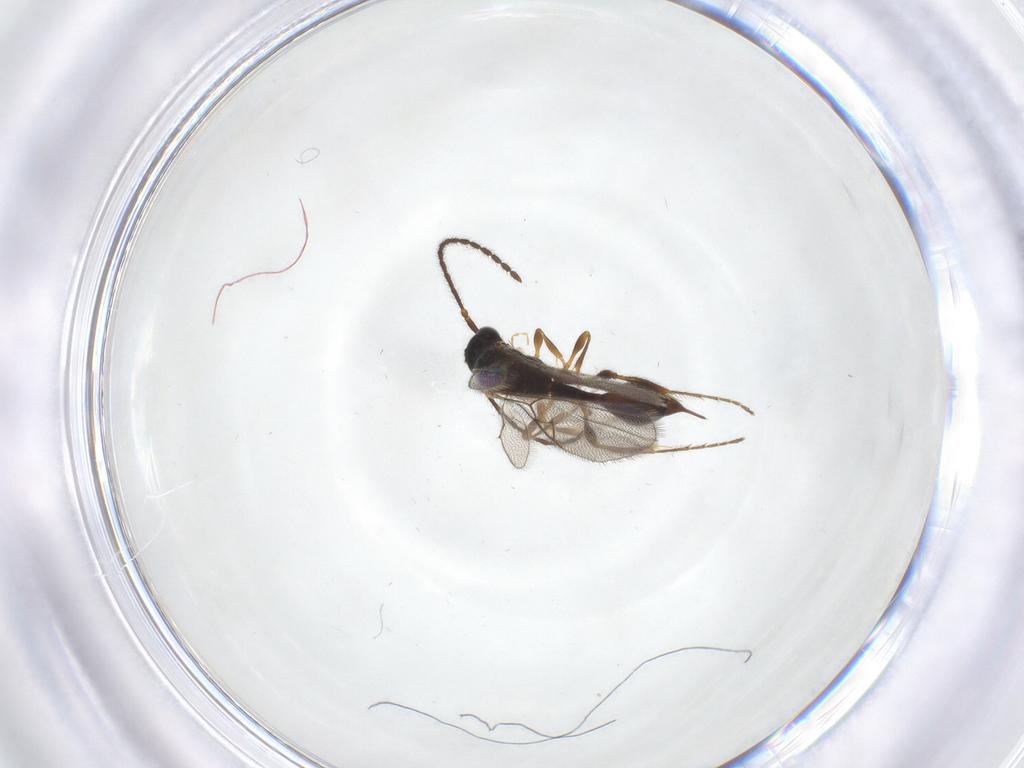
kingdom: Animalia
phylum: Arthropoda
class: Insecta
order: Hymenoptera
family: Diapriidae
